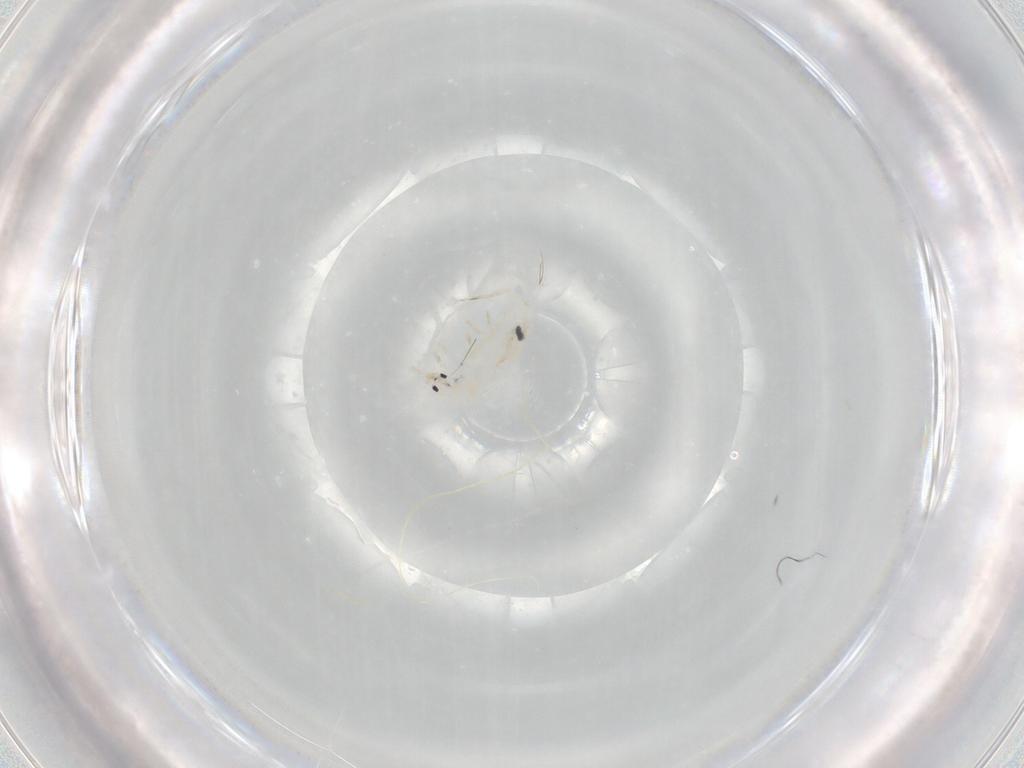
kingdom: Animalia
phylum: Arthropoda
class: Collembola
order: Entomobryomorpha
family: Entomobryidae
